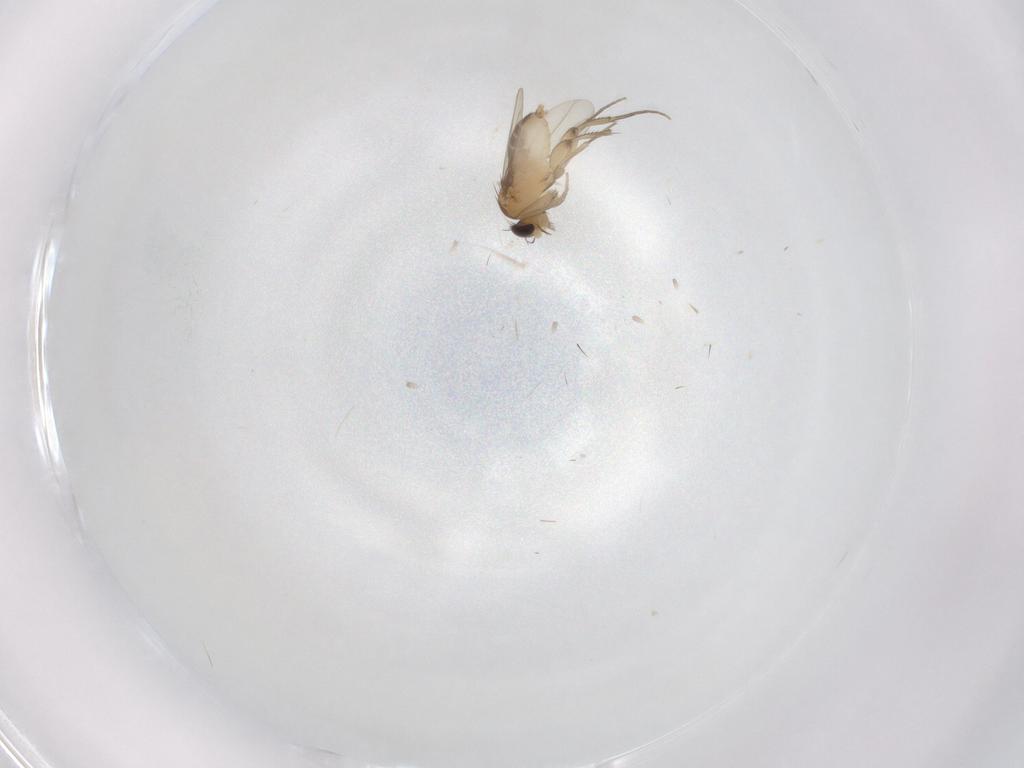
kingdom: Animalia
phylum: Arthropoda
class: Insecta
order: Diptera
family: Phoridae
